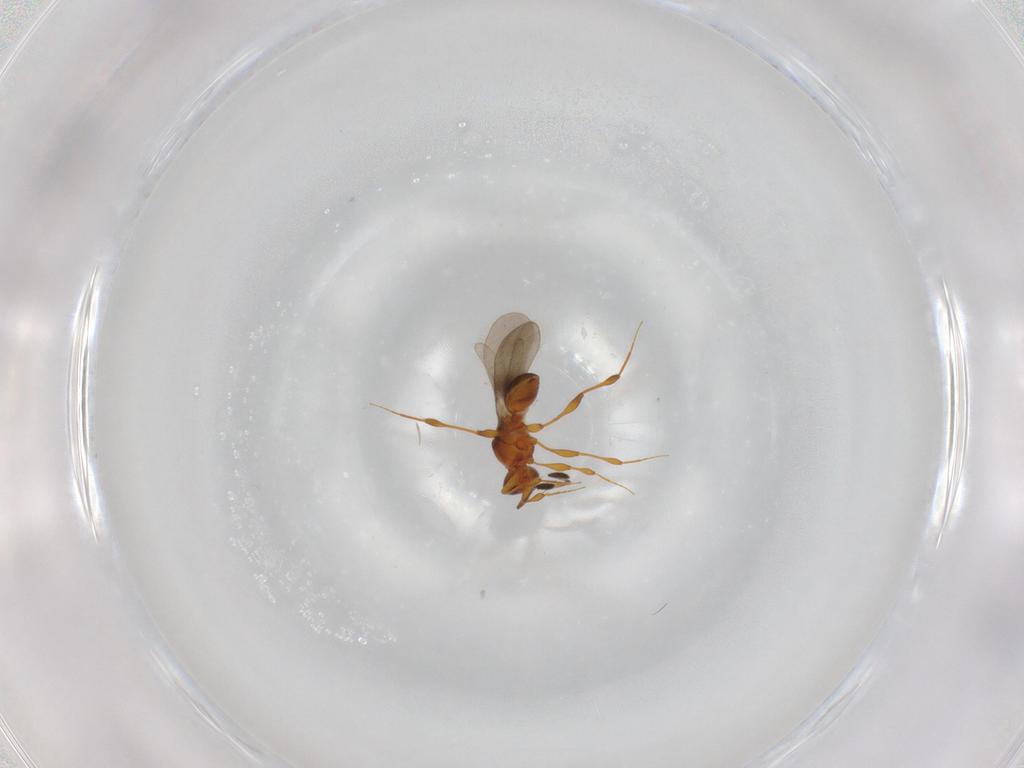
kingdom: Animalia
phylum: Arthropoda
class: Insecta
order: Hymenoptera
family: Platygastridae
